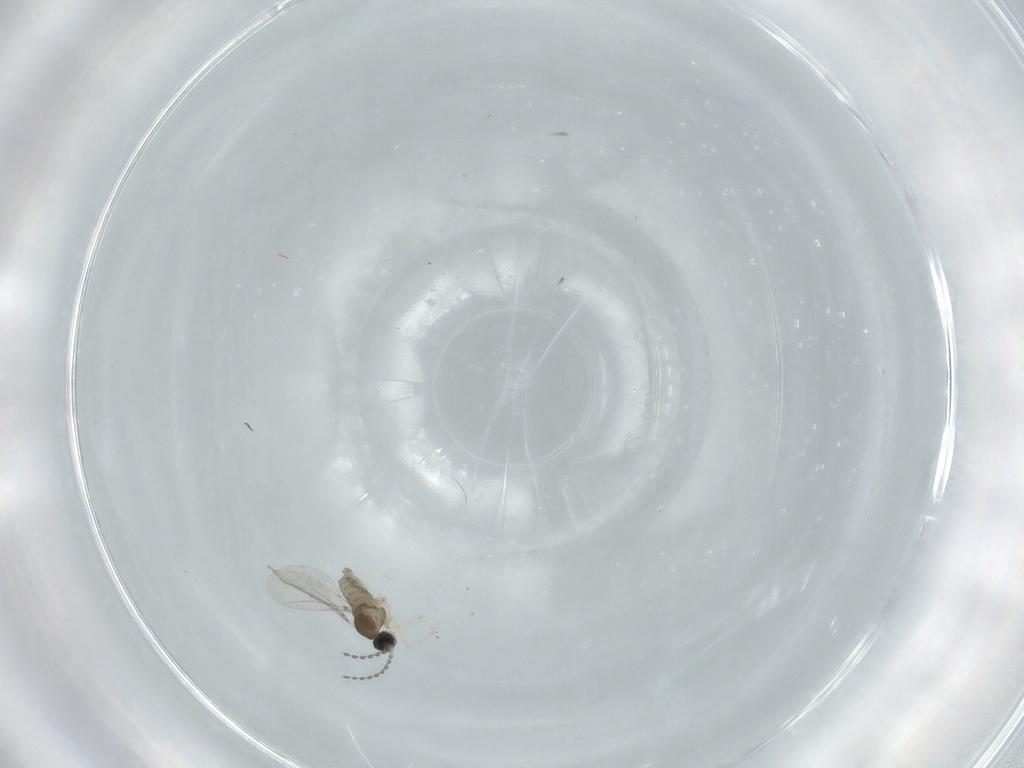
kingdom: Animalia
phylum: Arthropoda
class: Insecta
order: Diptera
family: Cecidomyiidae
